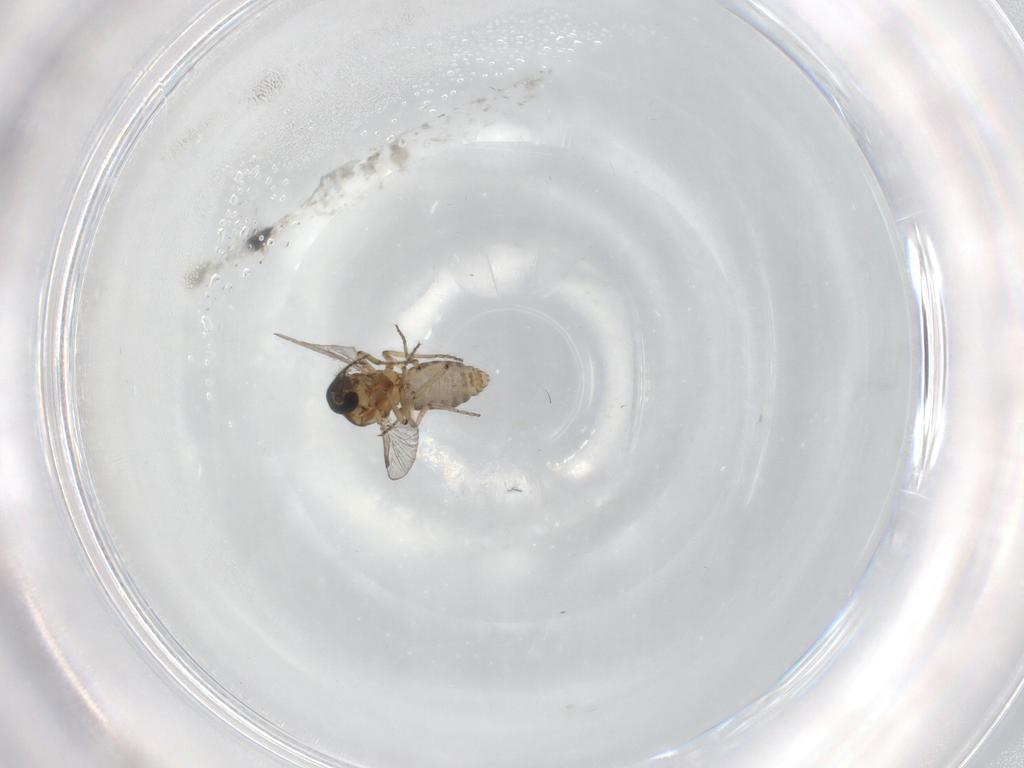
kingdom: Animalia
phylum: Arthropoda
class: Insecta
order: Diptera
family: Ceratopogonidae
